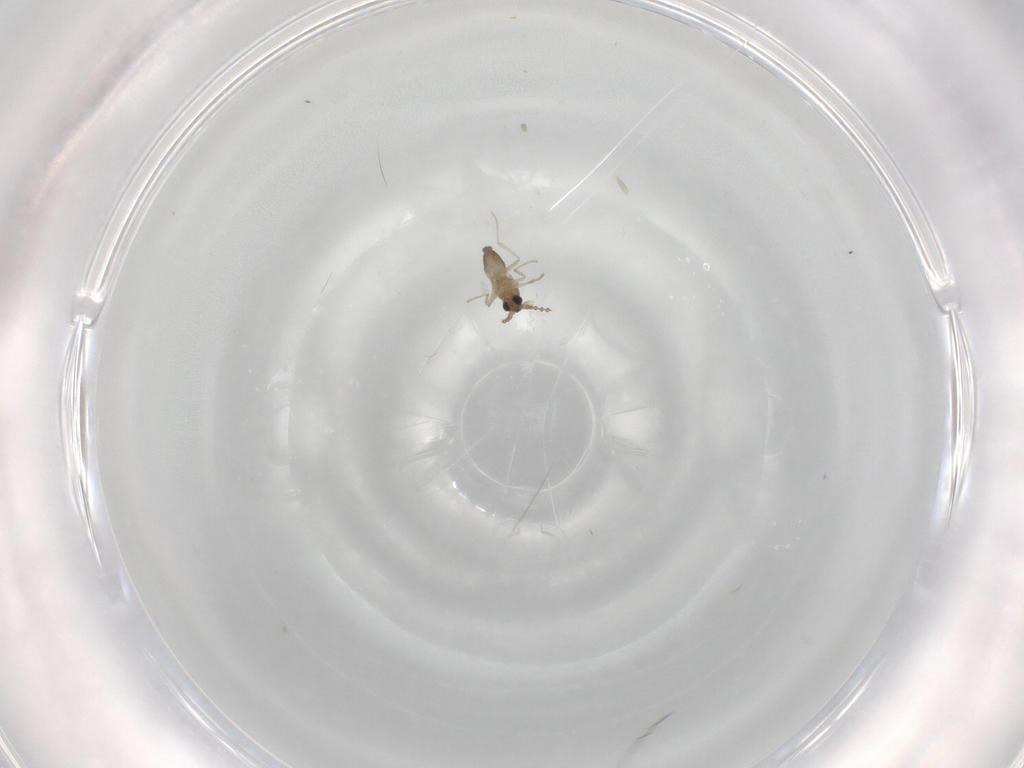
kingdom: Animalia
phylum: Arthropoda
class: Insecta
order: Diptera
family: Cecidomyiidae
